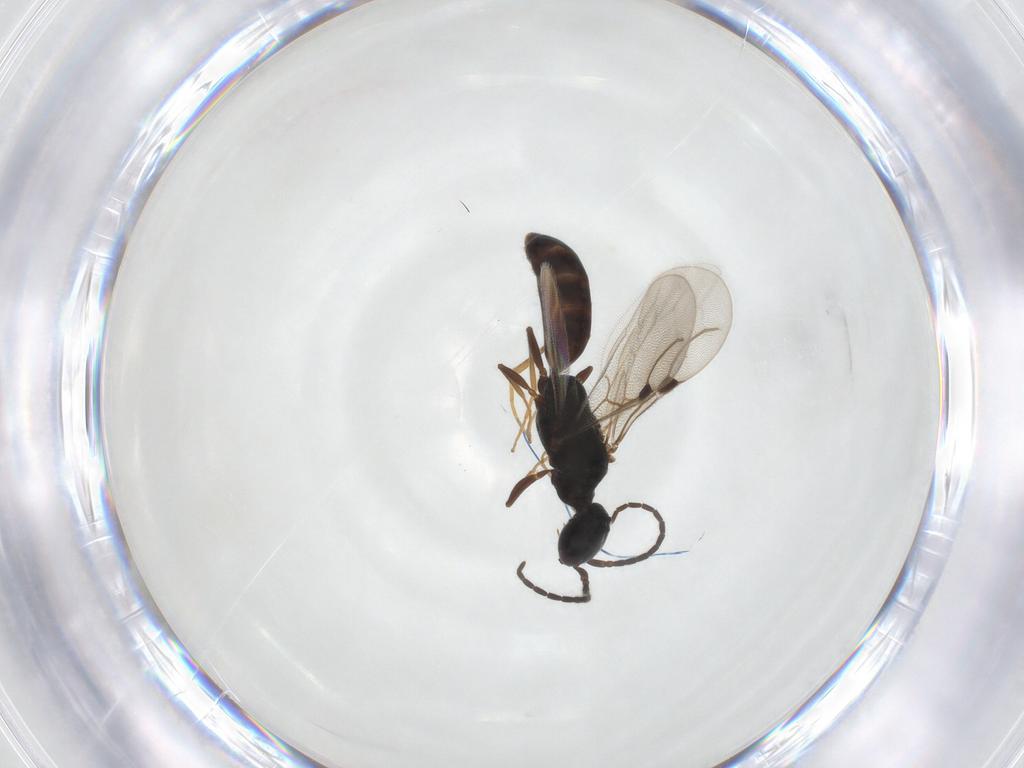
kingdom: Animalia
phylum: Arthropoda
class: Insecta
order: Hymenoptera
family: Bethylidae
